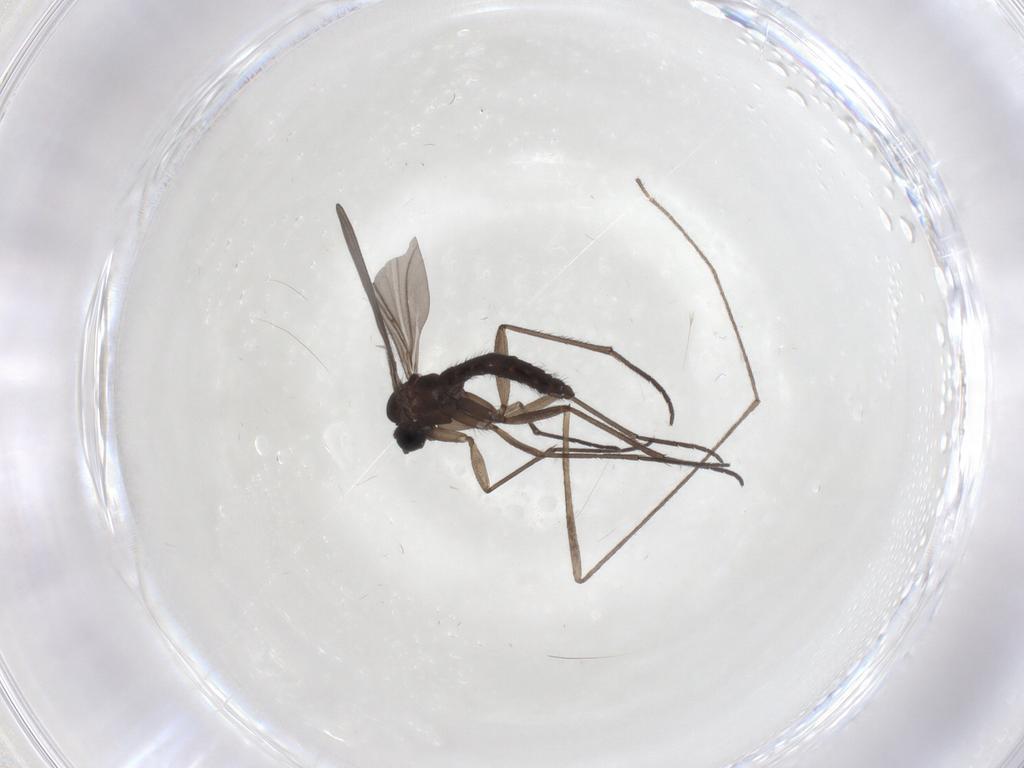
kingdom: Animalia
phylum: Arthropoda
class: Insecta
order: Diptera
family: Sciaridae
